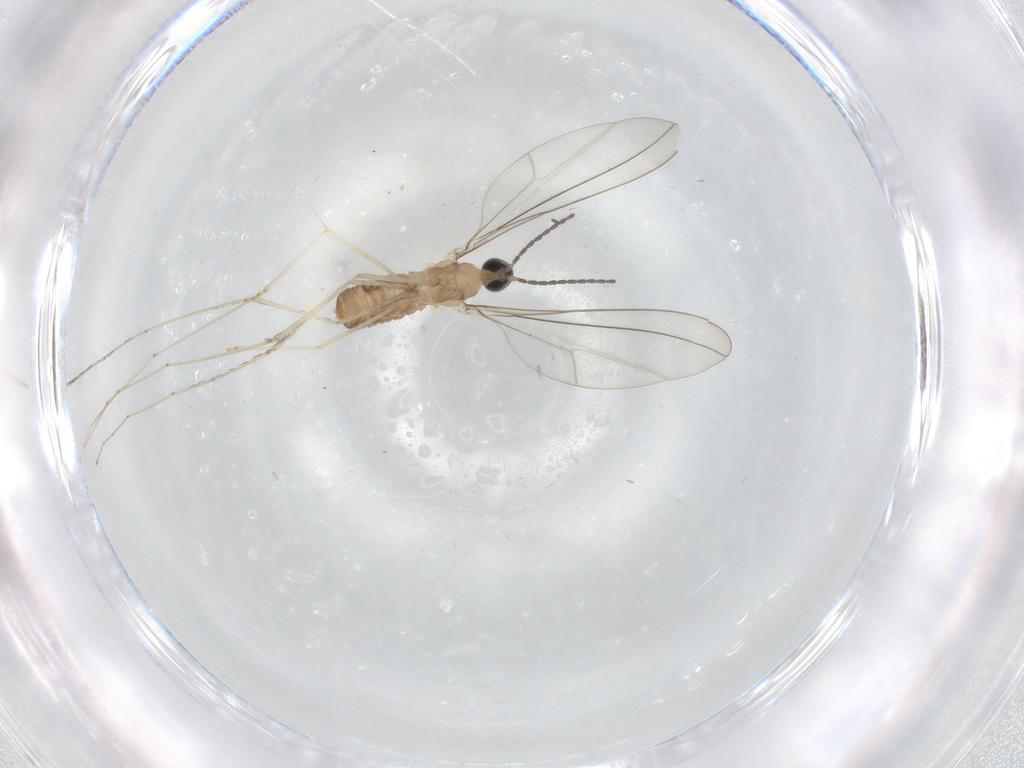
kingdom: Animalia
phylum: Arthropoda
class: Insecta
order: Diptera
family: Ceratopogonidae
